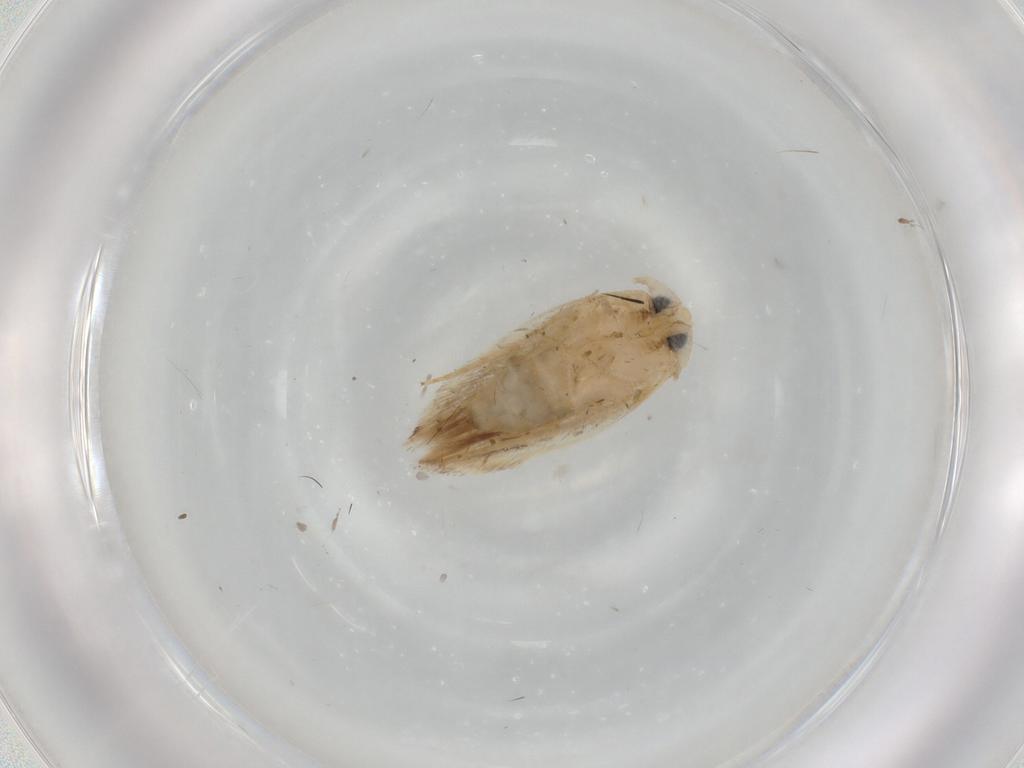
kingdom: Animalia
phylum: Arthropoda
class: Insecta
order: Lepidoptera
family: Opostegidae
